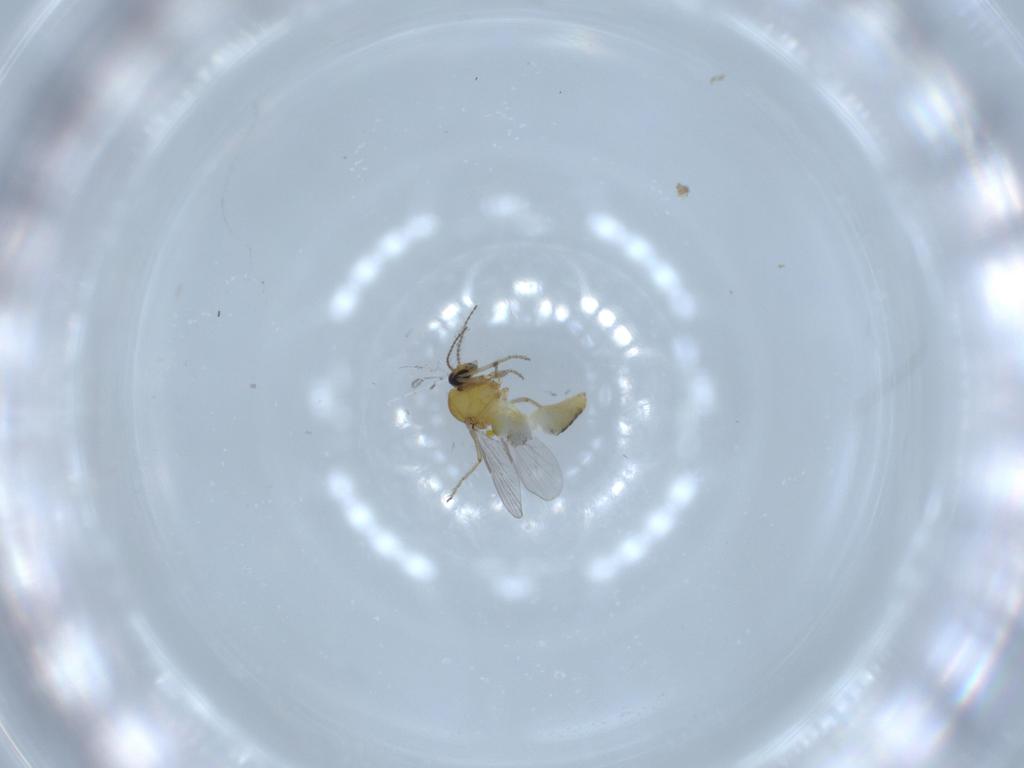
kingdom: Animalia
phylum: Arthropoda
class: Insecta
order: Diptera
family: Ceratopogonidae
